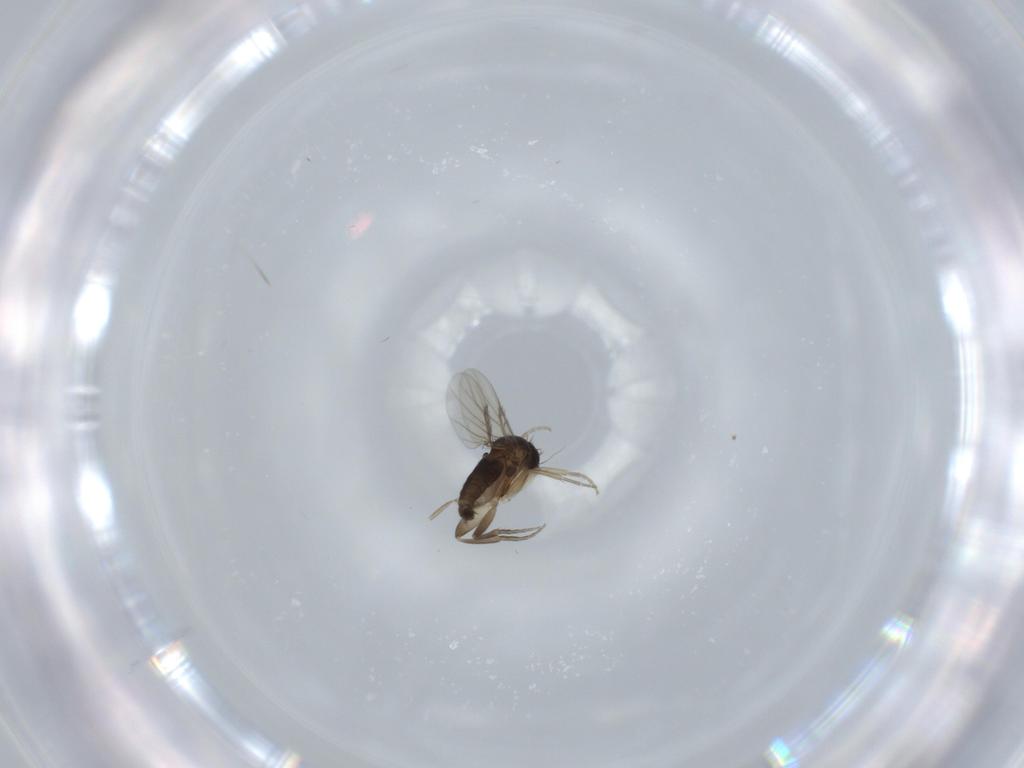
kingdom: Animalia
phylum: Arthropoda
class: Insecta
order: Diptera
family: Phoridae
